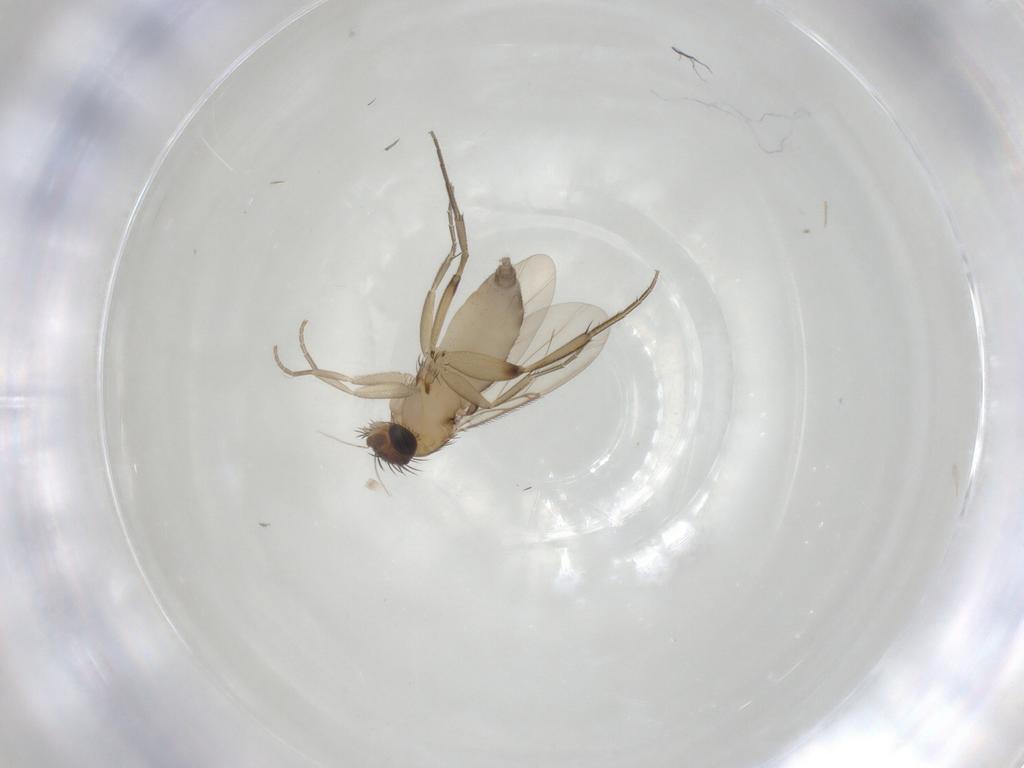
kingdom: Animalia
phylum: Arthropoda
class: Insecta
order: Diptera
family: Phoridae
